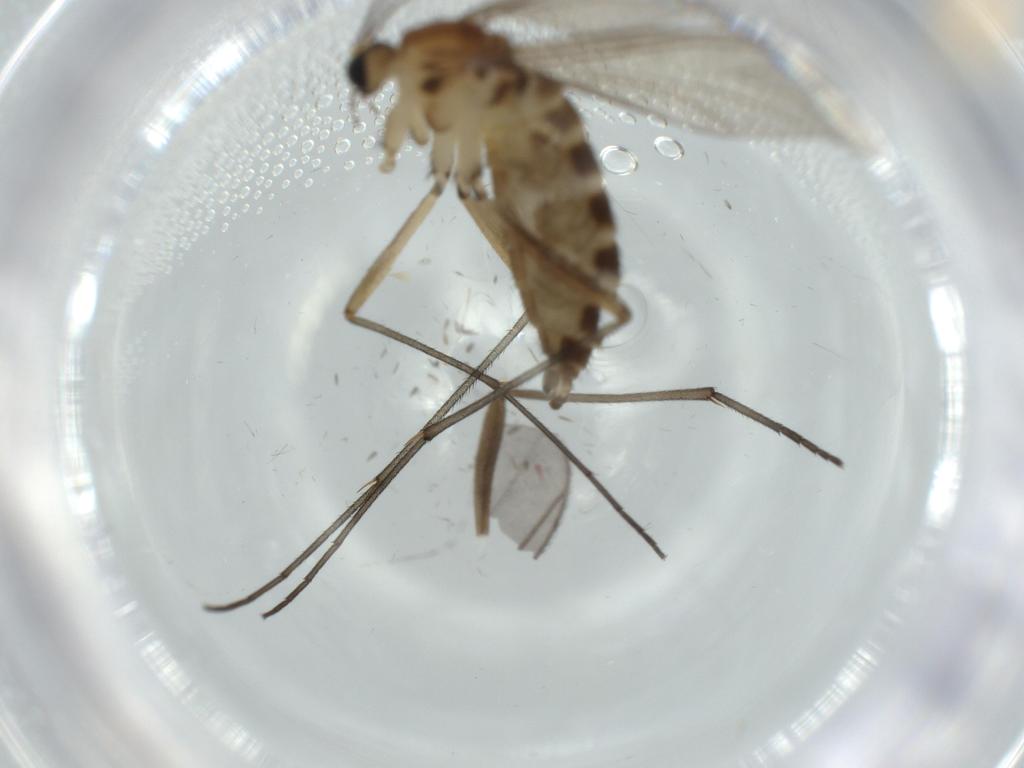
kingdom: Animalia
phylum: Arthropoda
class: Insecta
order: Diptera
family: Sciaridae
